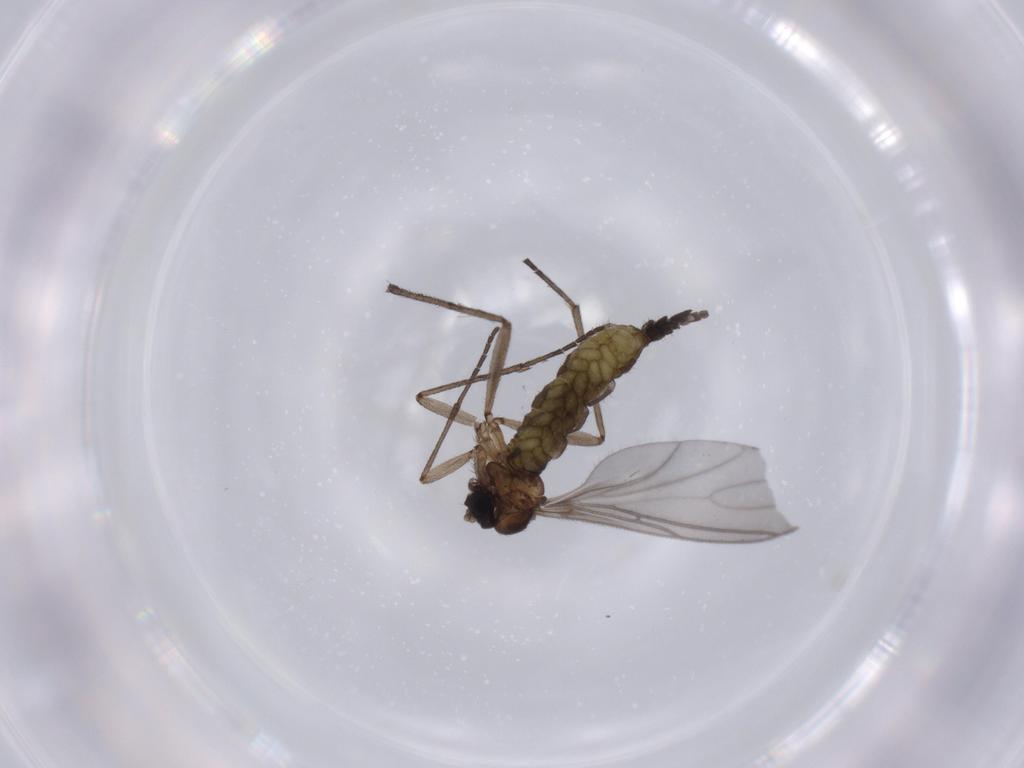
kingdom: Animalia
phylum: Arthropoda
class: Insecta
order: Diptera
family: Sciaridae
